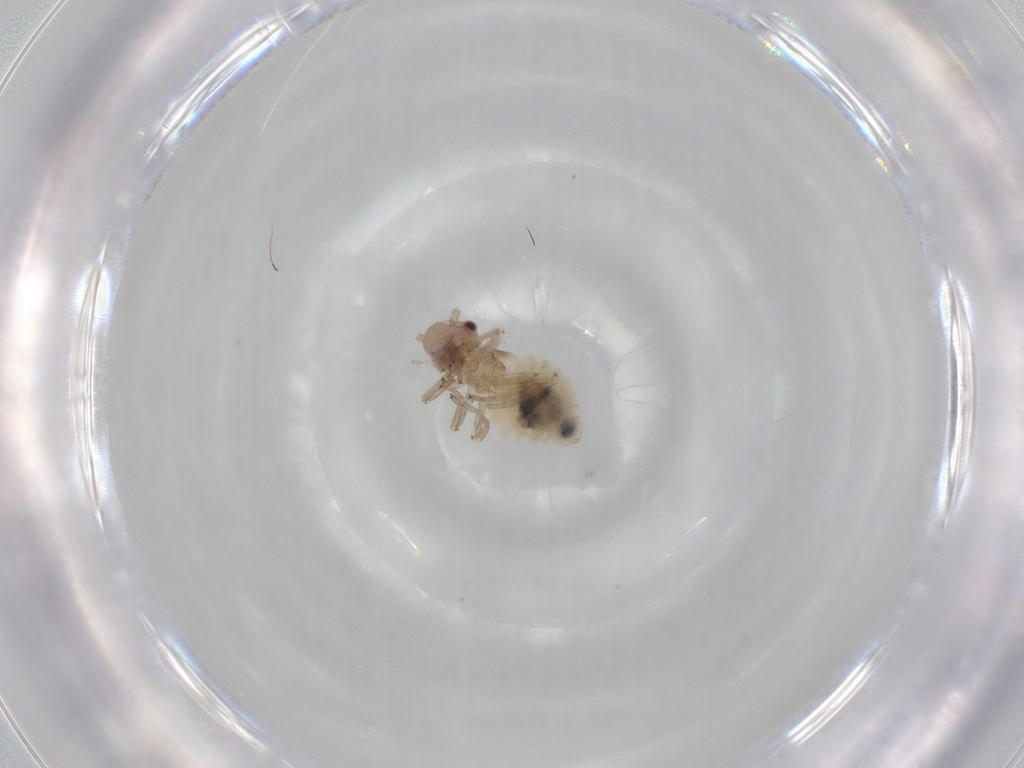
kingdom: Animalia
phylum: Arthropoda
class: Insecta
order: Psocodea
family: Stenopsocidae
